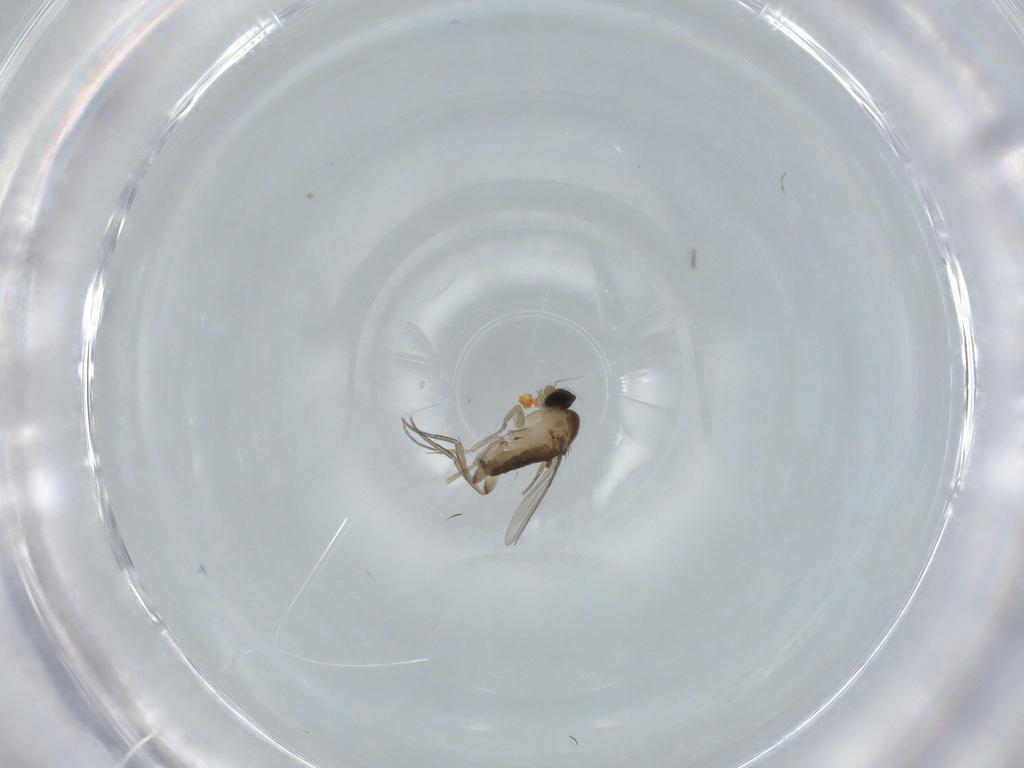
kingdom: Animalia
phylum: Arthropoda
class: Insecta
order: Diptera
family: Phoridae
